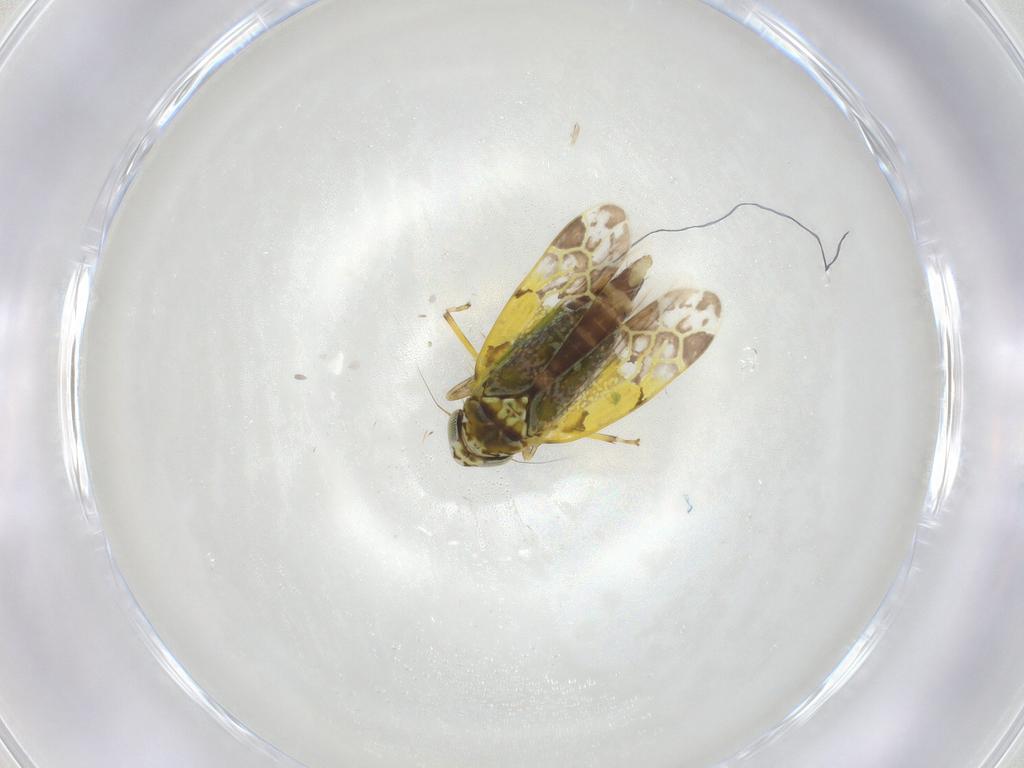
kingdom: Animalia
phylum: Arthropoda
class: Insecta
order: Hemiptera
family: Cicadellidae
